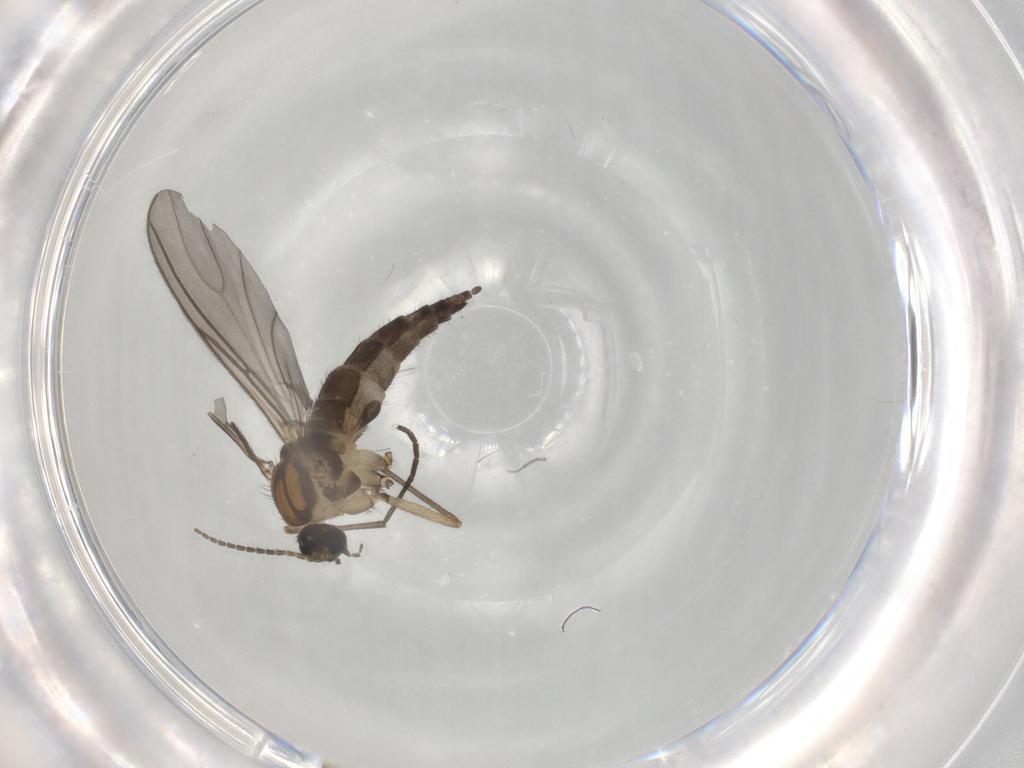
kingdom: Animalia
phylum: Arthropoda
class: Insecta
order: Diptera
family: Sciaridae
